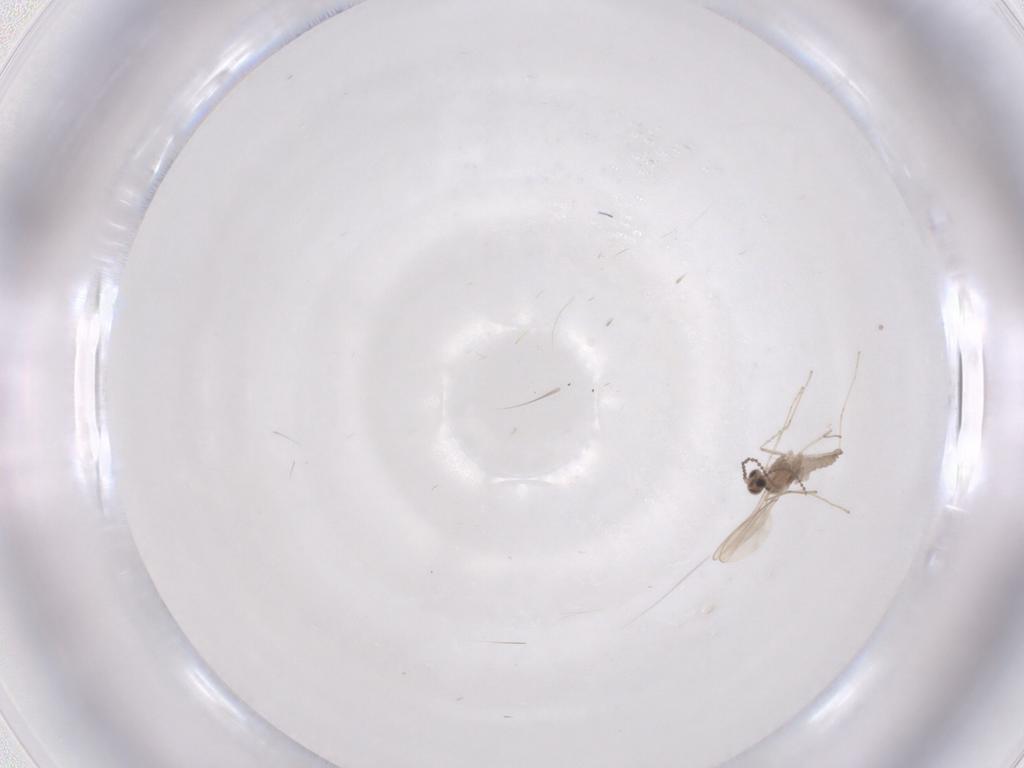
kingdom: Animalia
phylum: Arthropoda
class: Insecta
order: Diptera
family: Cecidomyiidae
